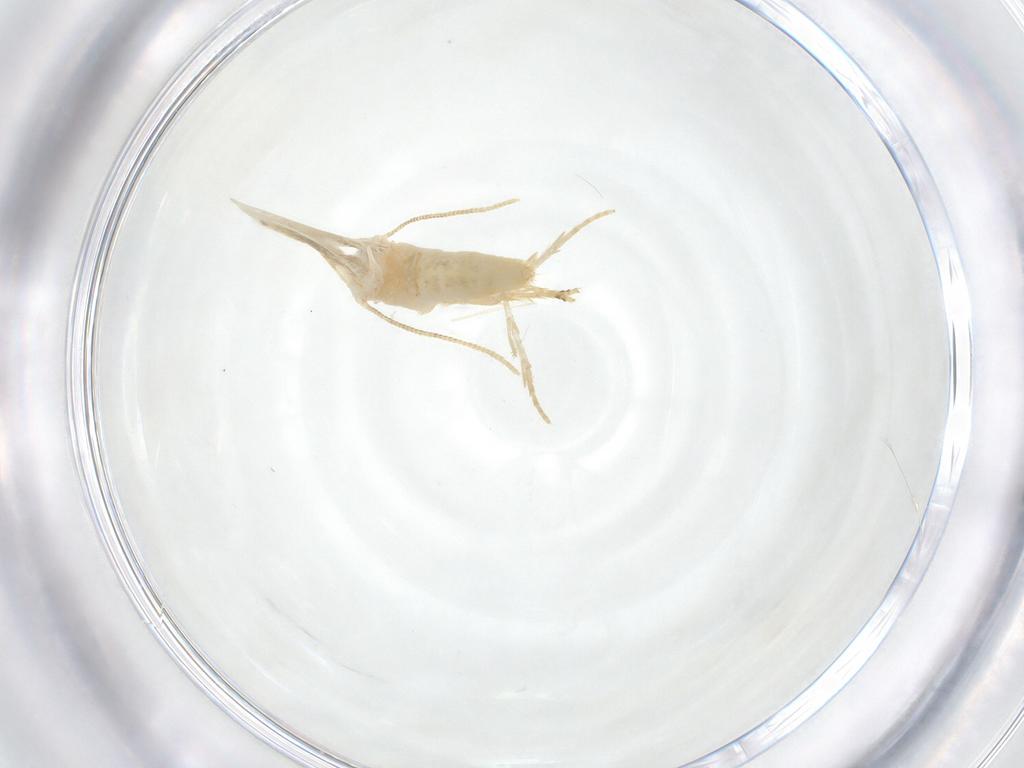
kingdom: Animalia
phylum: Arthropoda
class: Insecta
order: Lepidoptera
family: Opostegidae
